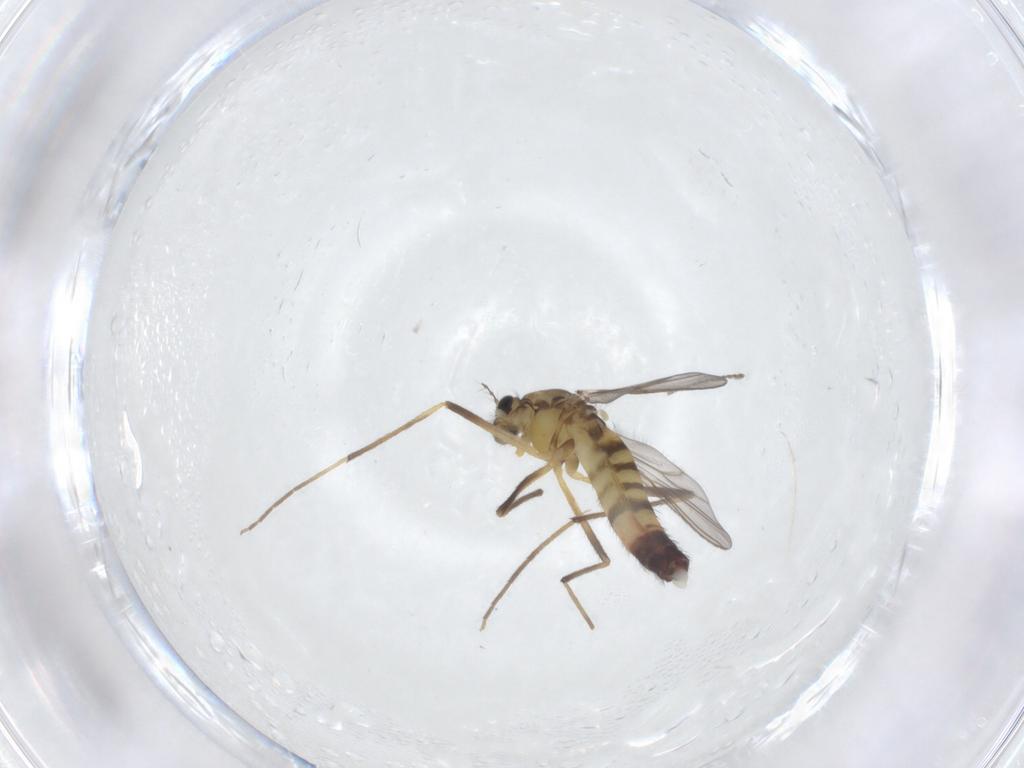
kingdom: Animalia
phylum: Arthropoda
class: Insecta
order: Diptera
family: Chironomidae
